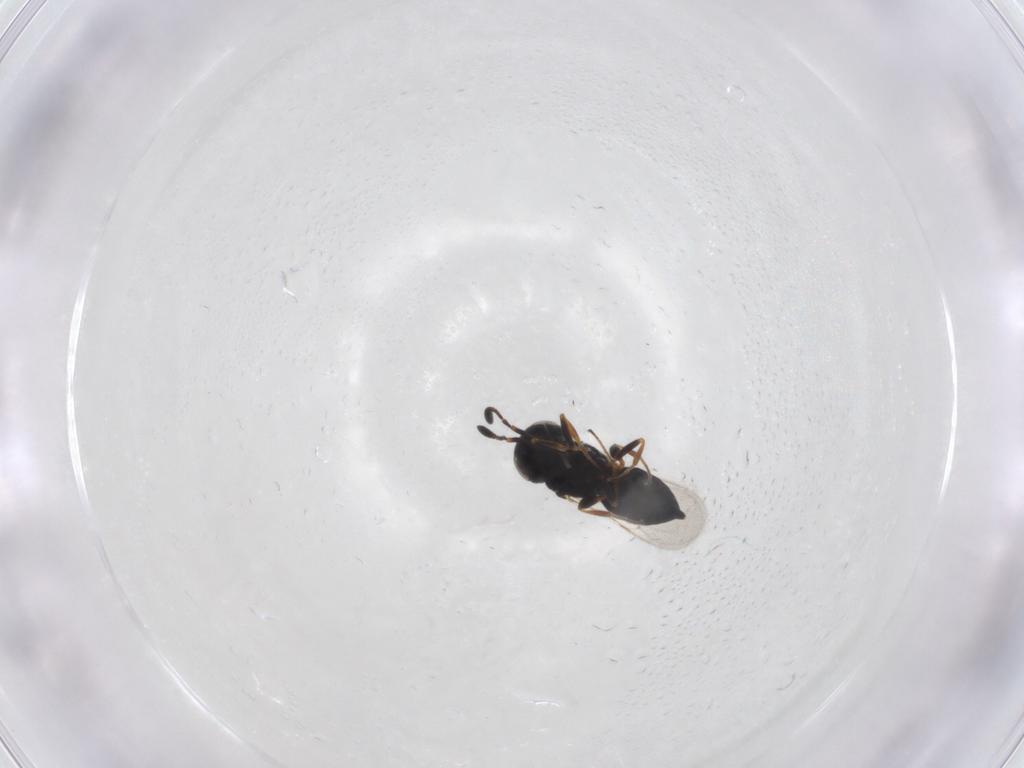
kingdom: Animalia
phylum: Arthropoda
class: Insecta
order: Hymenoptera
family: Scelionidae
